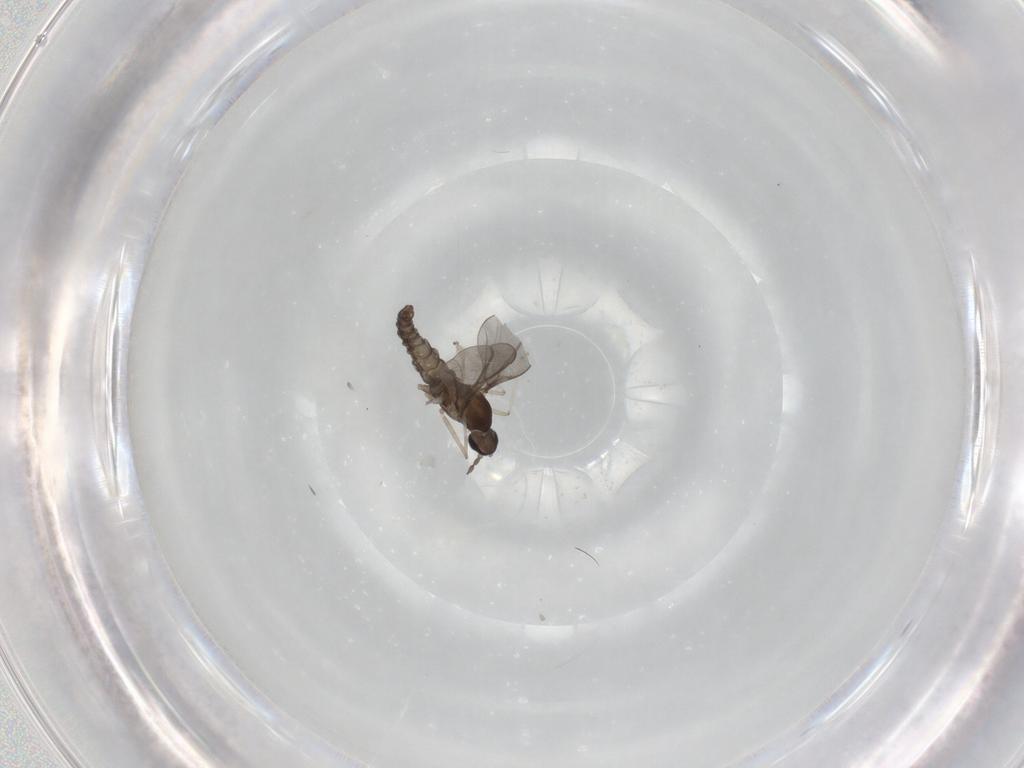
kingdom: Animalia
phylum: Arthropoda
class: Insecta
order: Diptera
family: Cecidomyiidae
